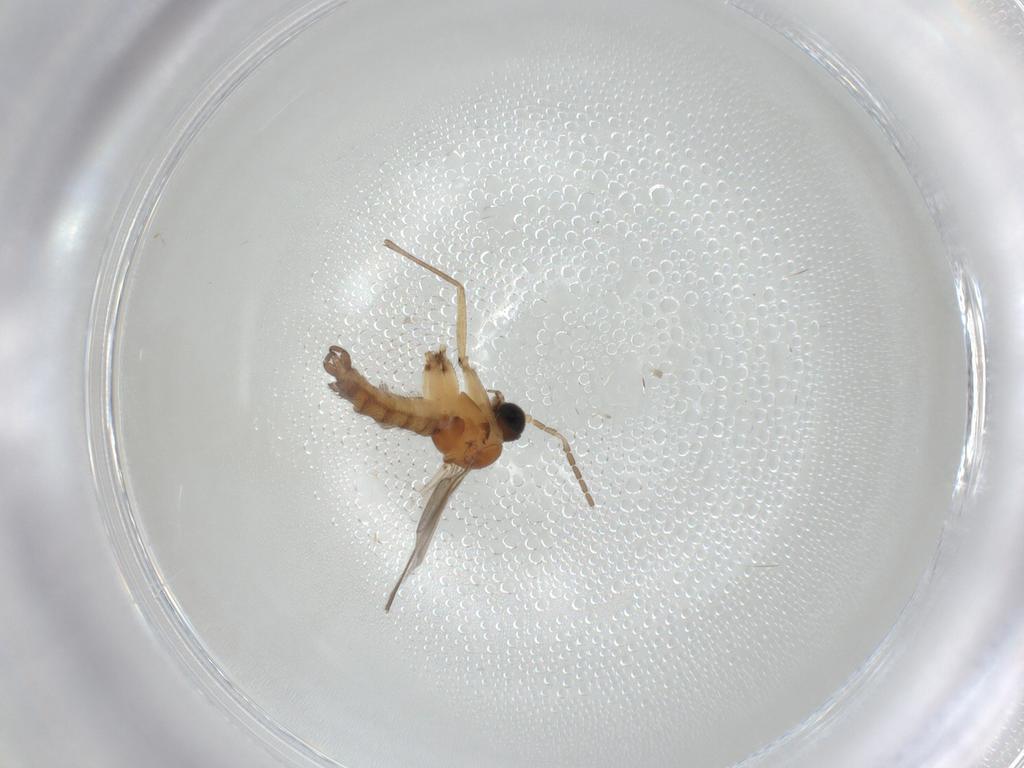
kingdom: Animalia
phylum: Arthropoda
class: Insecta
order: Diptera
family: Sciaridae
